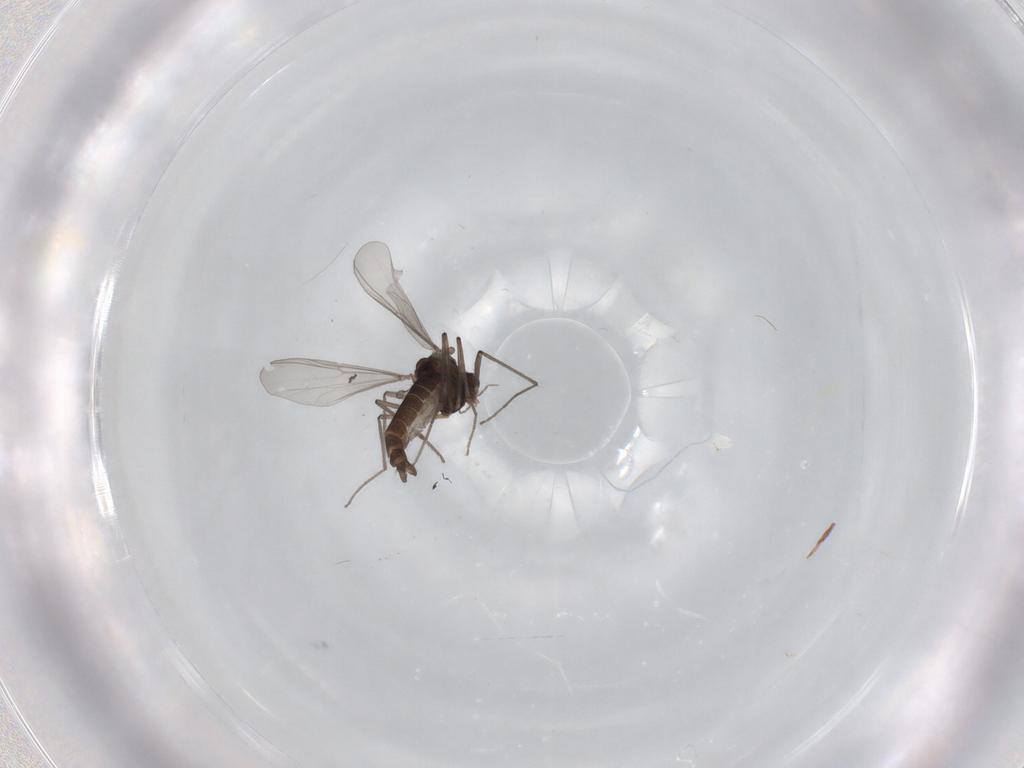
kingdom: Animalia
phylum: Arthropoda
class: Insecta
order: Diptera
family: Chironomidae
